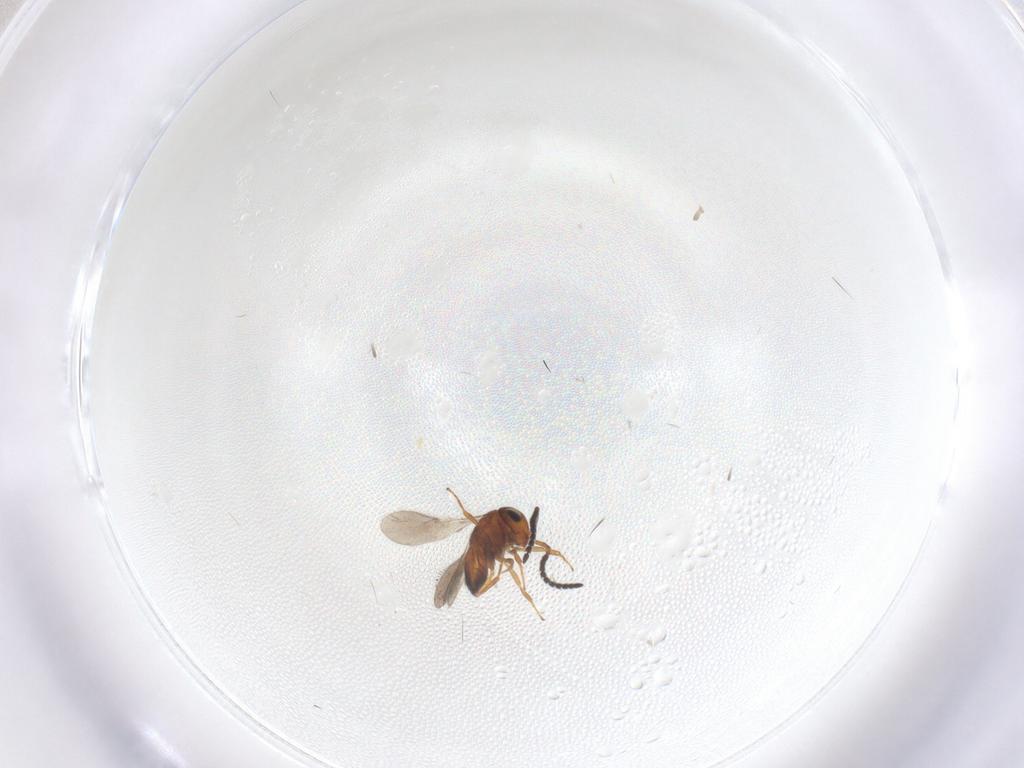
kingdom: Animalia
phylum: Arthropoda
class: Insecta
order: Hymenoptera
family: Scelionidae
